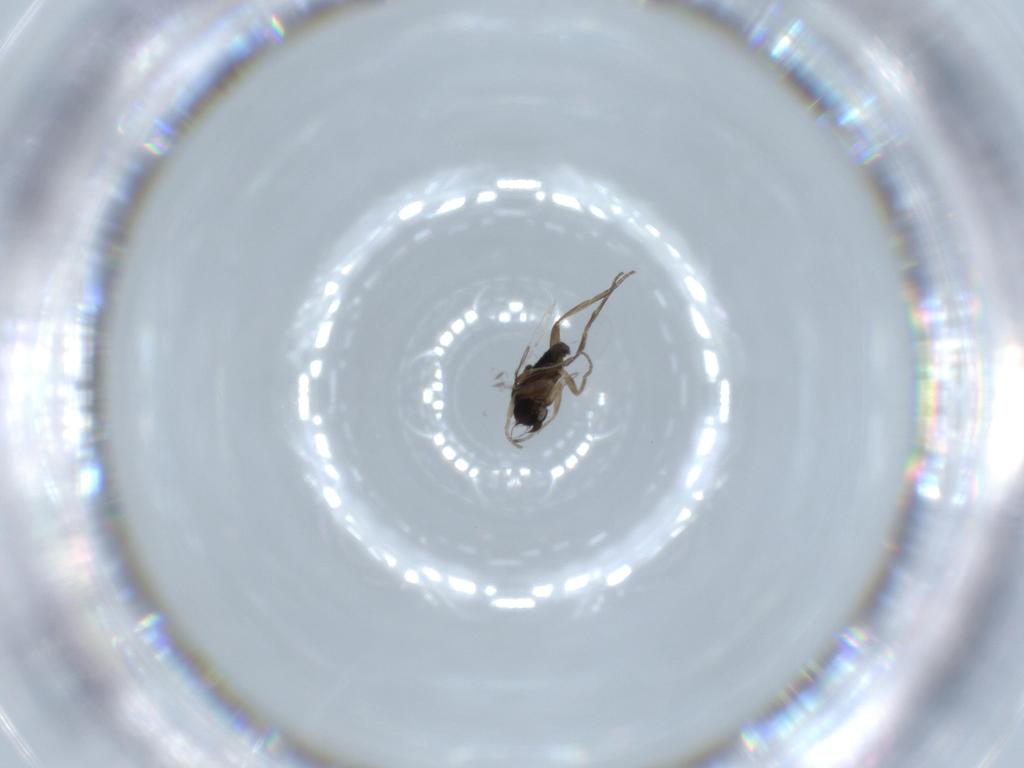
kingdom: Animalia
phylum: Arthropoda
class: Insecta
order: Diptera
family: Phoridae
